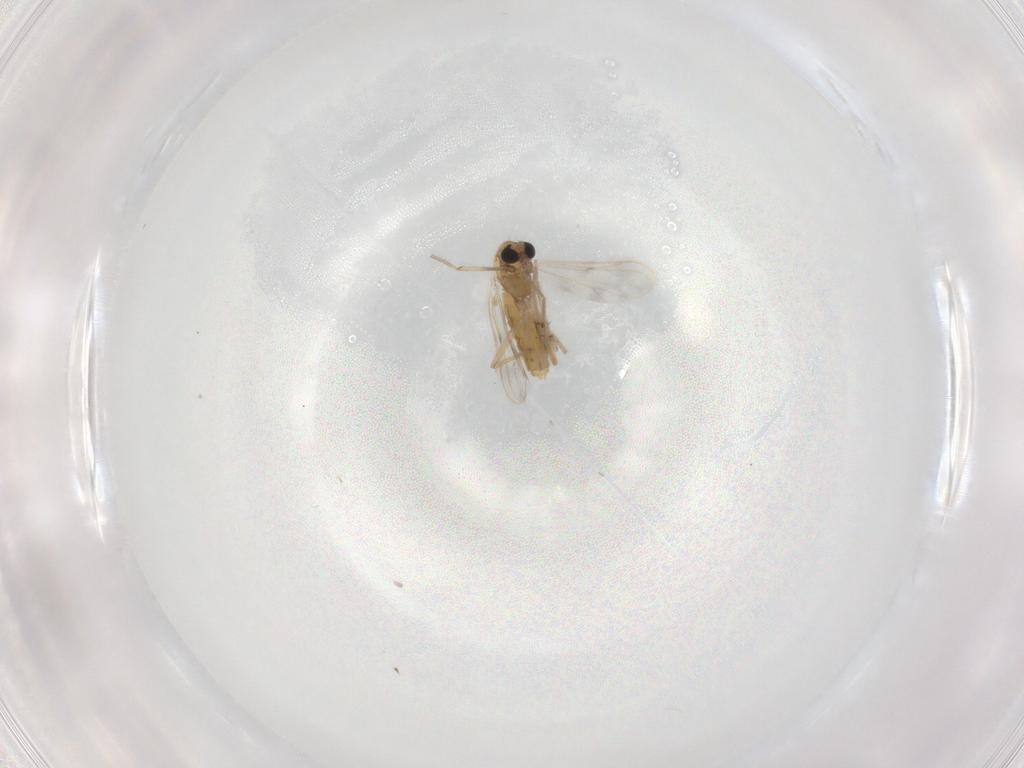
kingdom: Animalia
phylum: Arthropoda
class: Insecta
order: Diptera
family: Chironomidae
